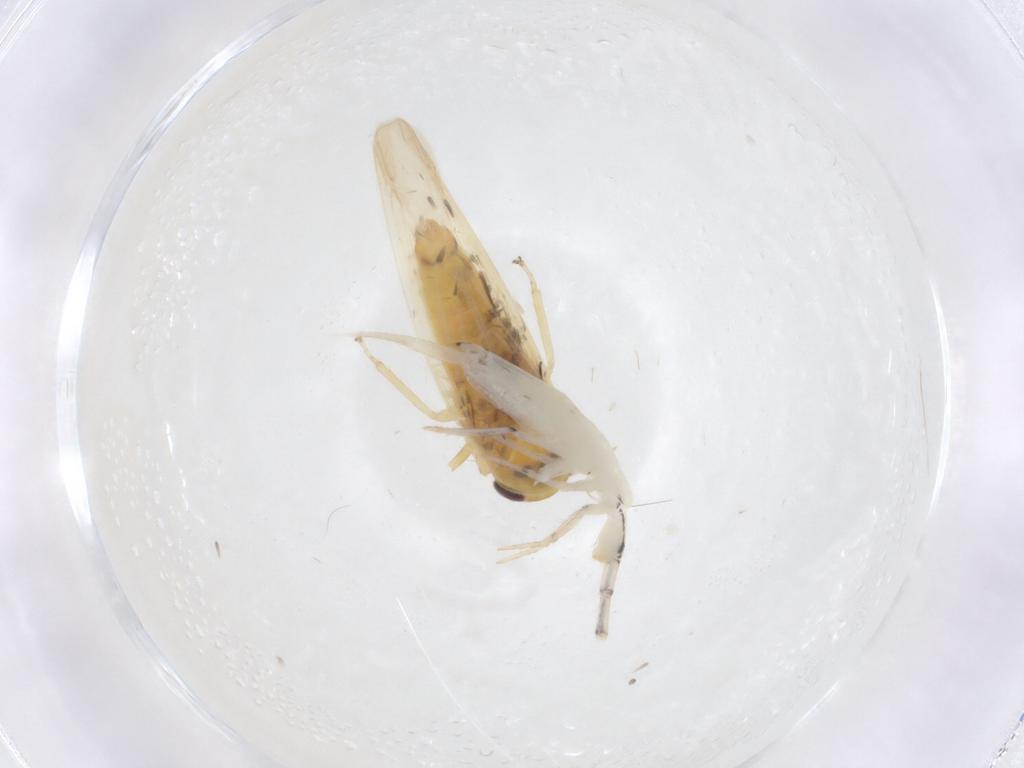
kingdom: Animalia
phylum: Arthropoda
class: Collembola
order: Entomobryomorpha
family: Entomobryidae
